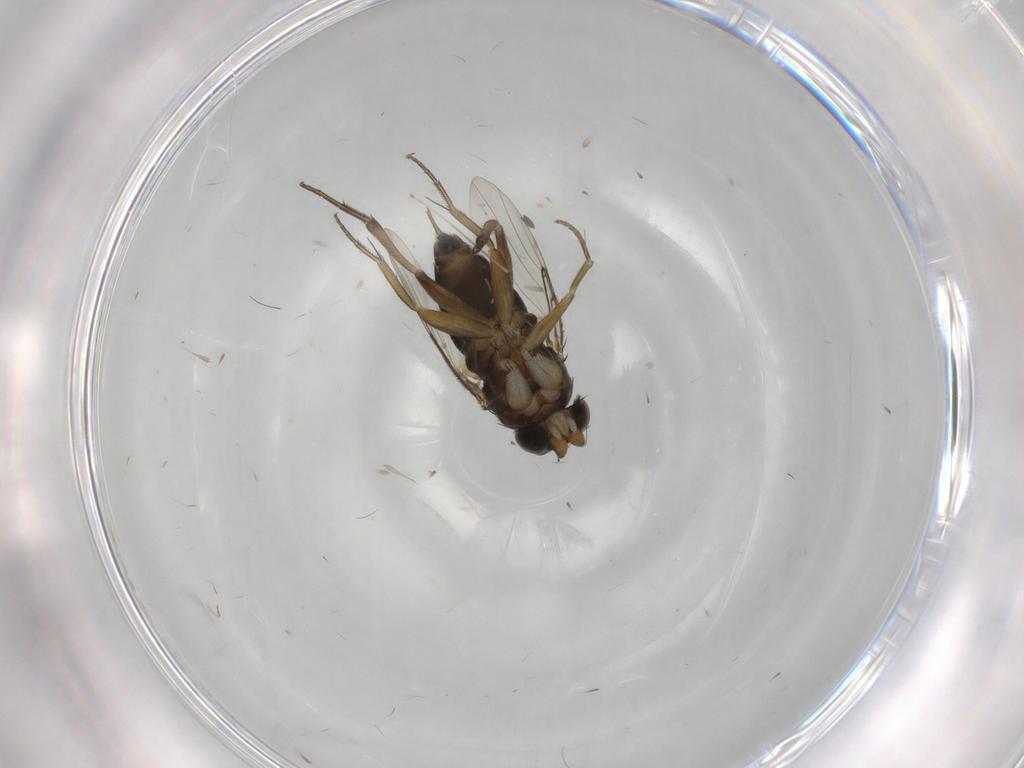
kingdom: Animalia
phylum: Arthropoda
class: Insecta
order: Diptera
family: Phoridae
